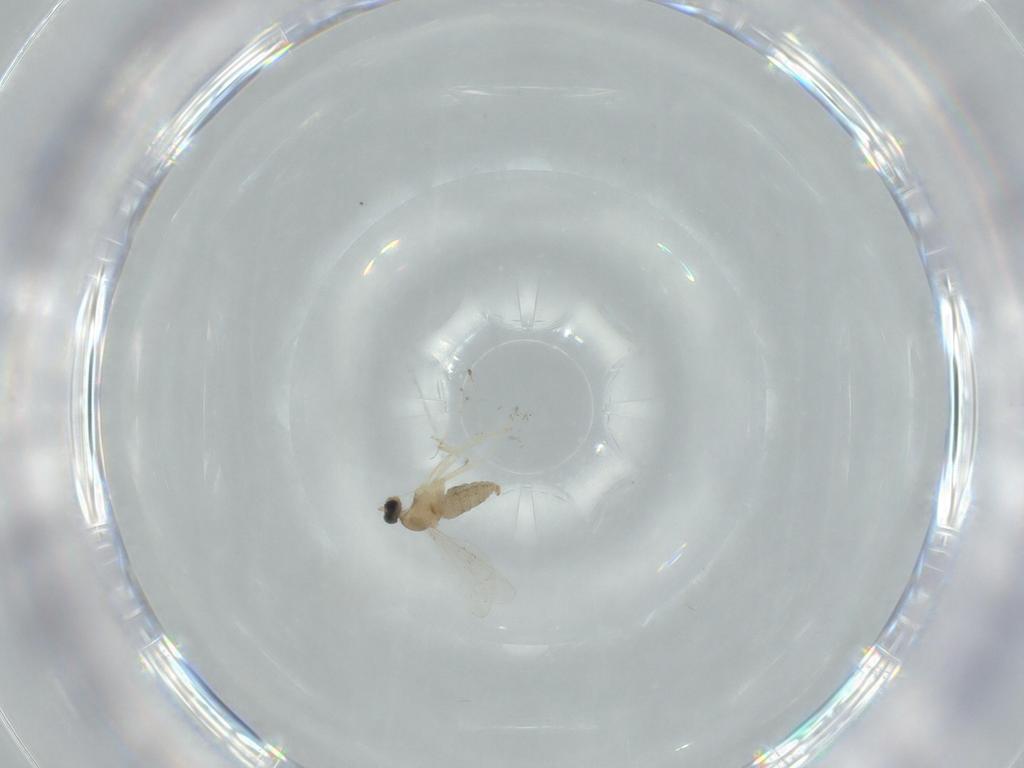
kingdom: Animalia
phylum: Arthropoda
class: Insecta
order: Diptera
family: Cecidomyiidae
